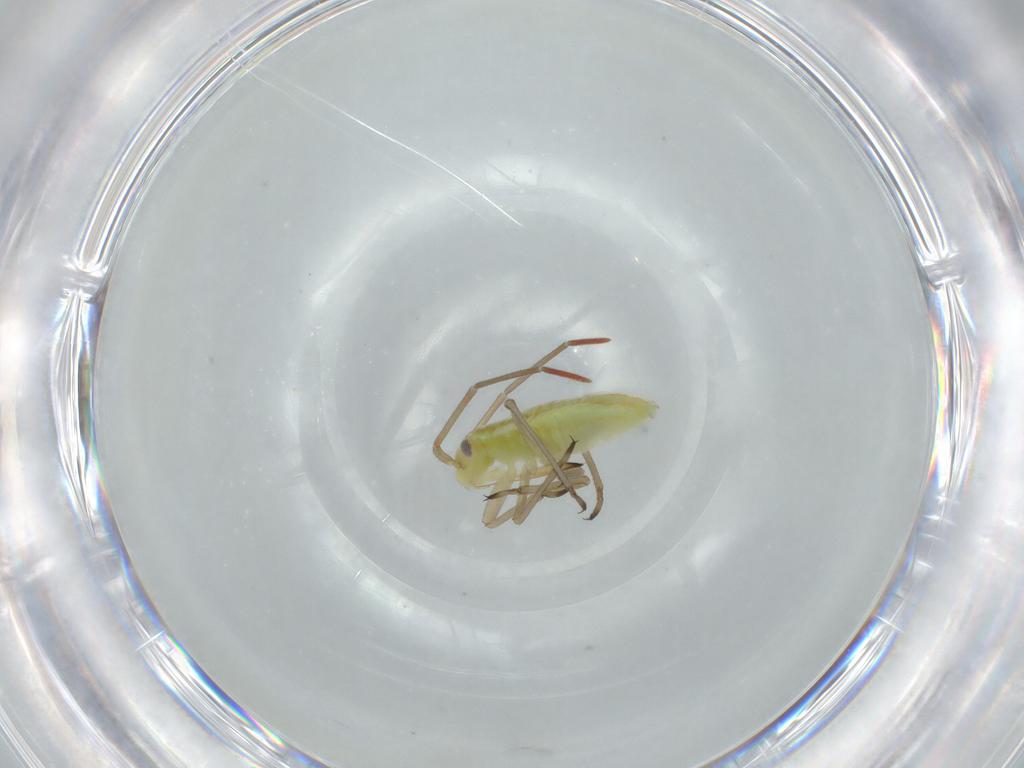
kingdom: Animalia
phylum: Arthropoda
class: Insecta
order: Hemiptera
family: Miridae
